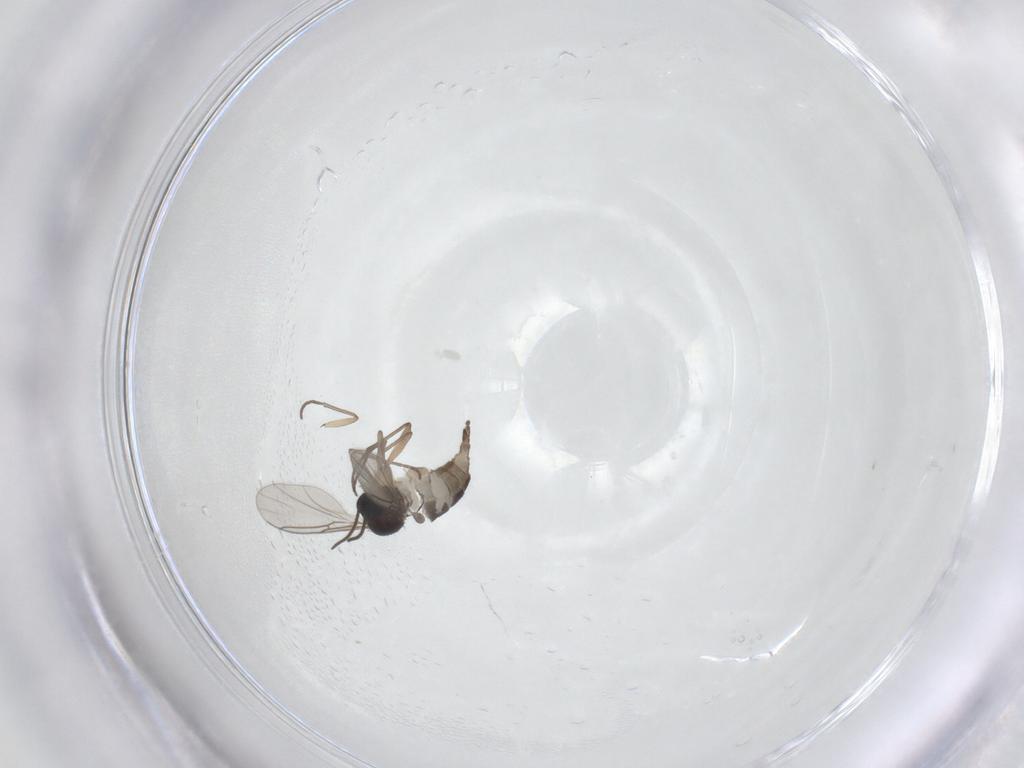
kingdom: Animalia
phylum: Arthropoda
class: Insecta
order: Diptera
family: Sciaridae
